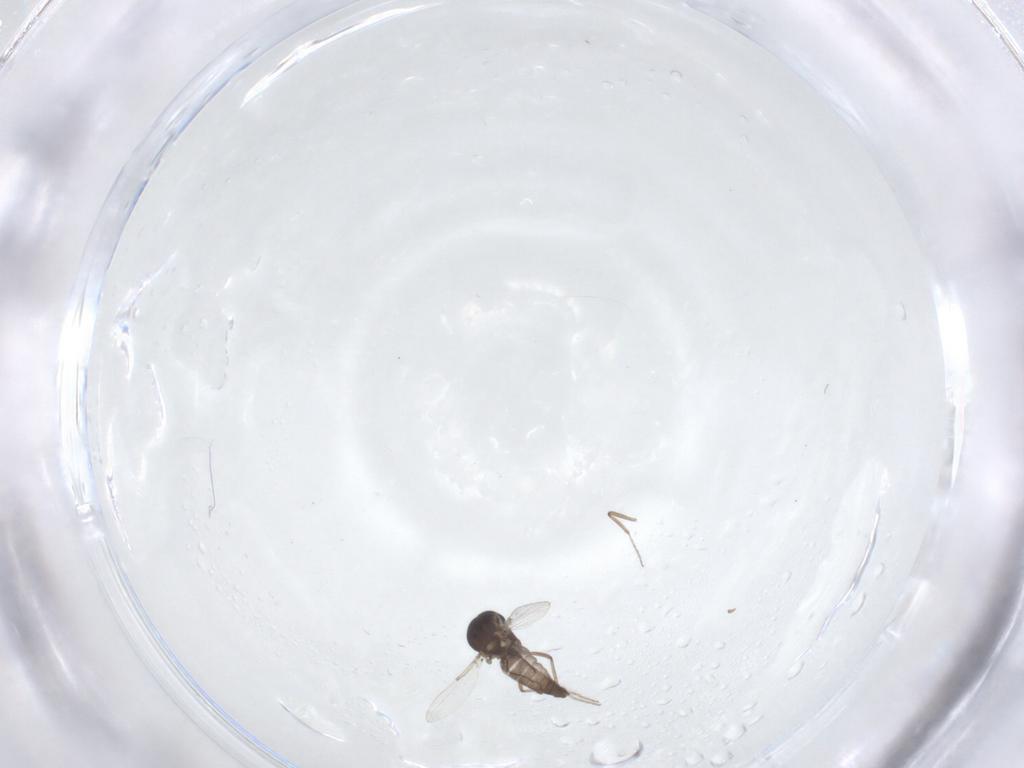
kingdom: Animalia
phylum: Arthropoda
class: Insecta
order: Diptera
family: Ceratopogonidae
